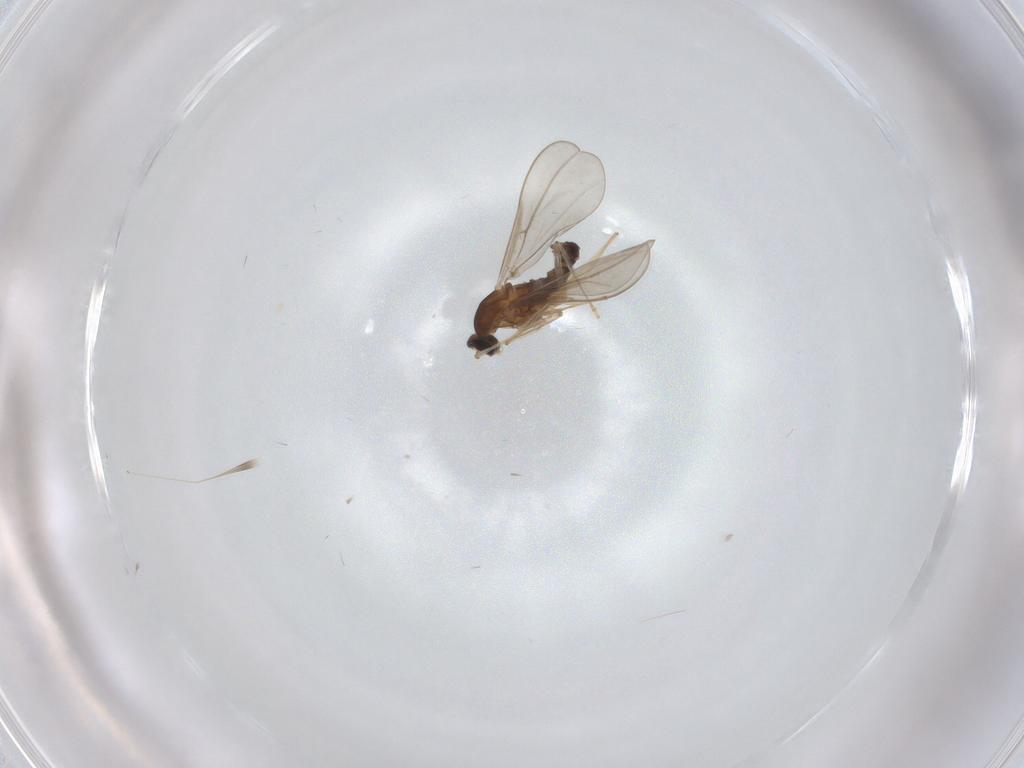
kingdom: Animalia
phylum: Arthropoda
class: Insecta
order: Diptera
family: Cecidomyiidae
